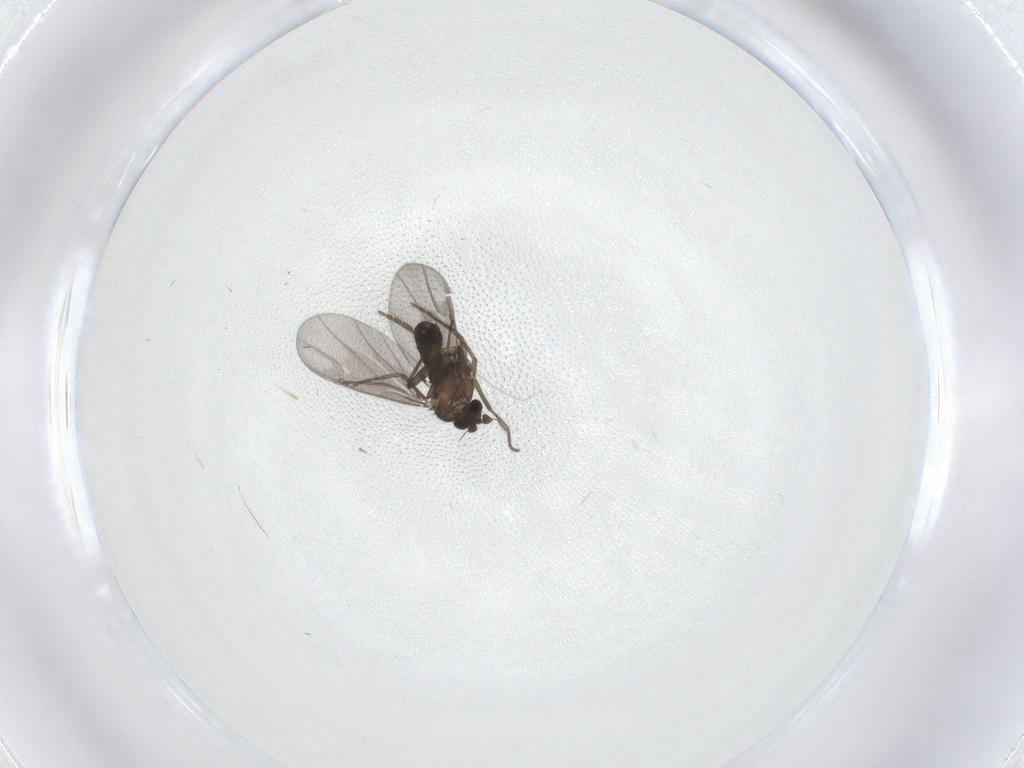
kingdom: Animalia
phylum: Arthropoda
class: Insecta
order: Diptera
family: Phoridae
